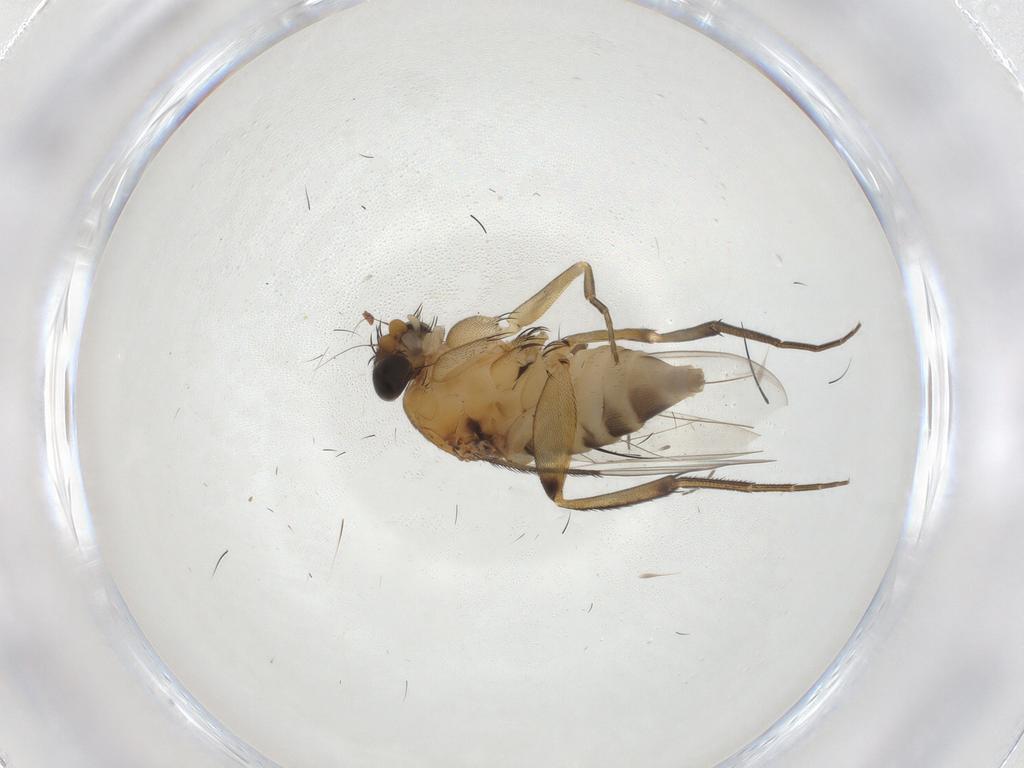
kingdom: Animalia
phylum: Arthropoda
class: Insecta
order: Diptera
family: Phoridae
